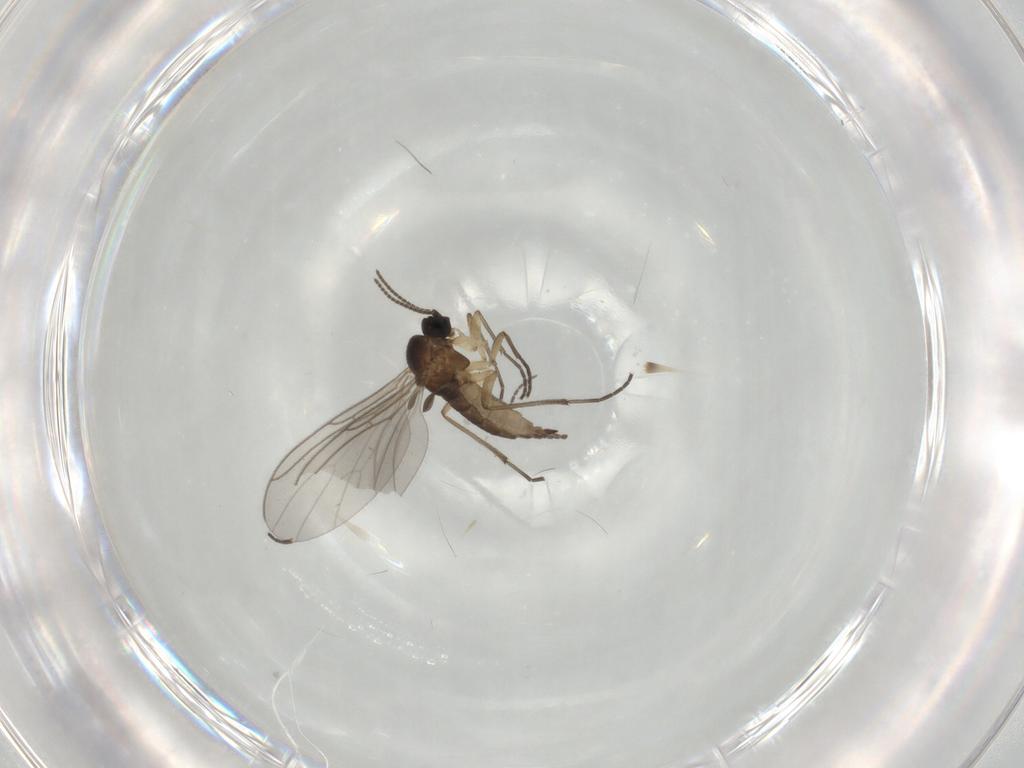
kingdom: Animalia
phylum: Arthropoda
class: Insecta
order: Diptera
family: Sciaridae
